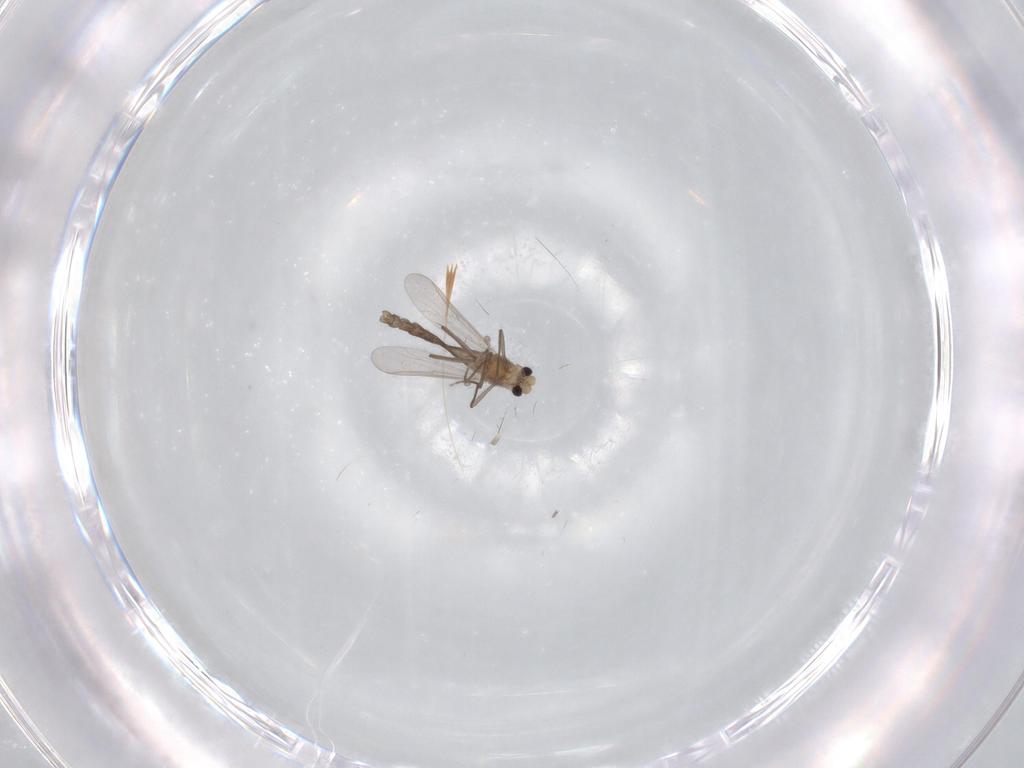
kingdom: Animalia
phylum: Arthropoda
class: Insecta
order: Diptera
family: Chironomidae
